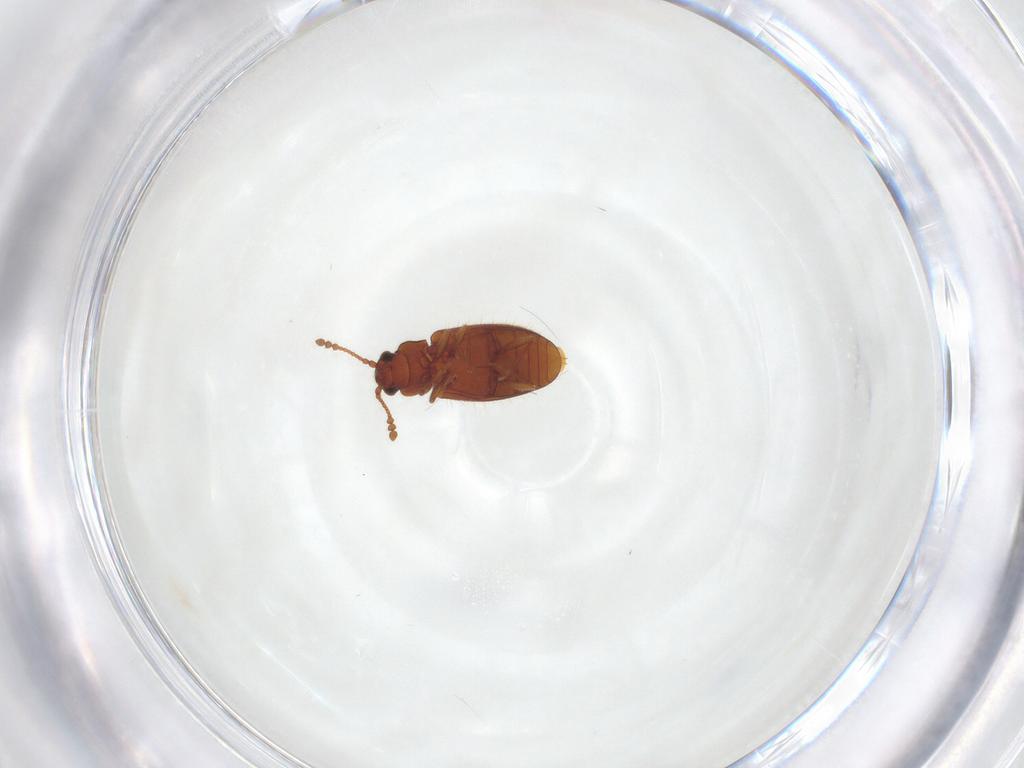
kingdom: Animalia
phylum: Arthropoda
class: Insecta
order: Coleoptera
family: Cryptophagidae
